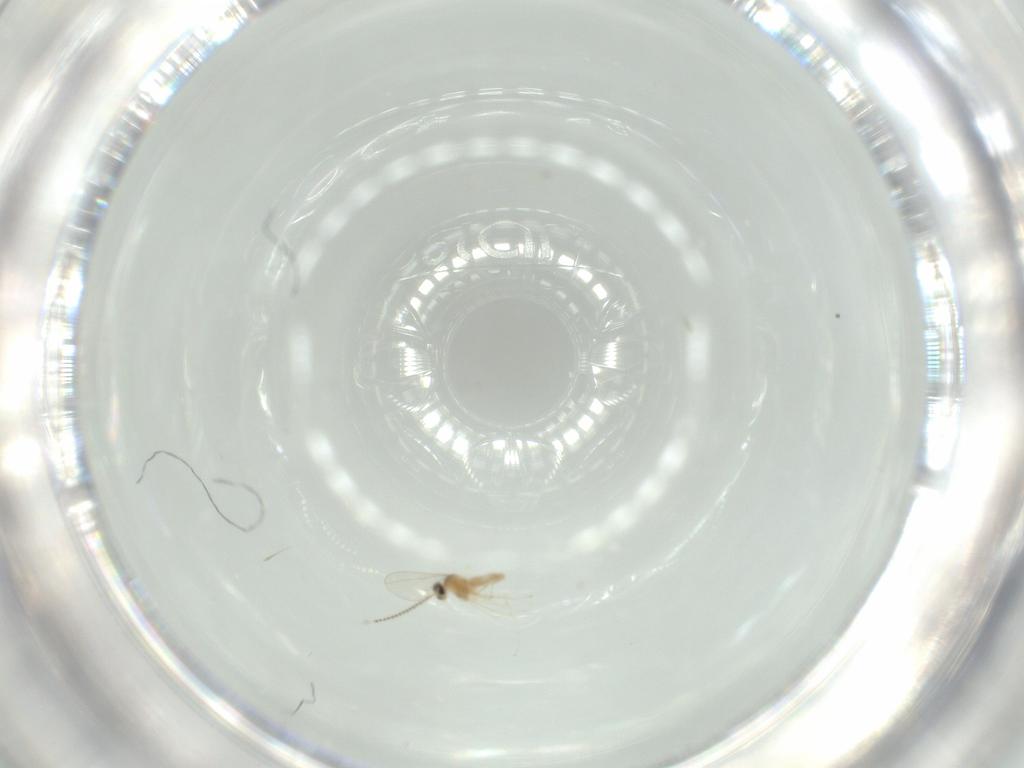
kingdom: Animalia
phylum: Arthropoda
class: Insecta
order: Diptera
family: Cecidomyiidae
